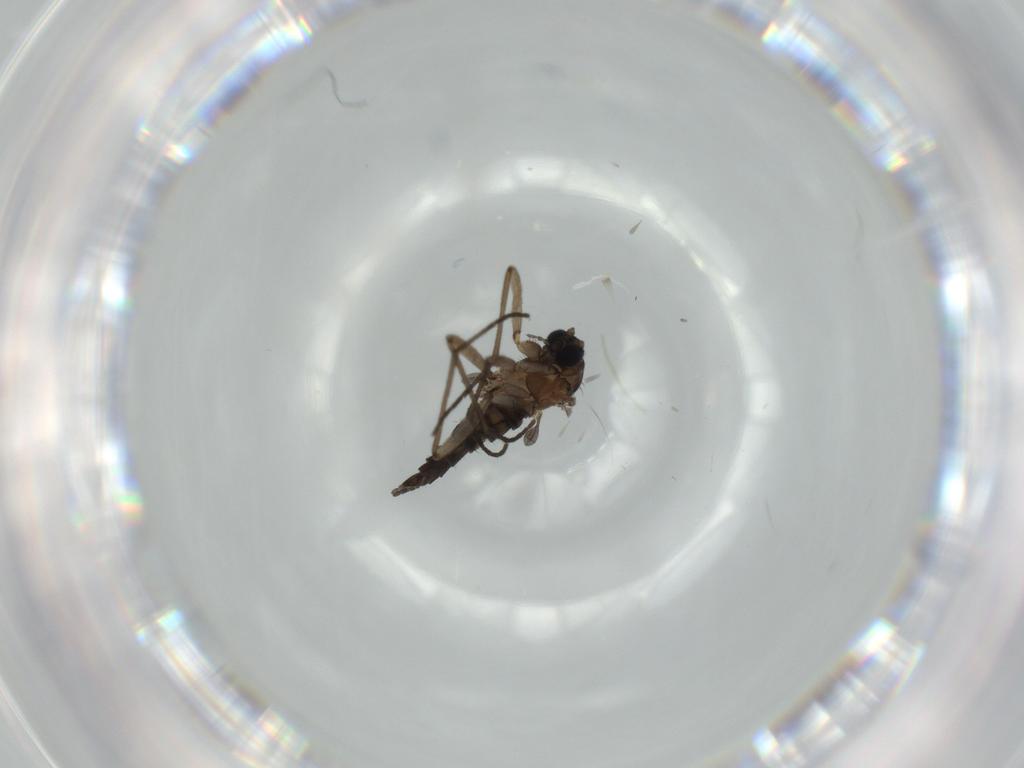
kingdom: Animalia
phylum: Arthropoda
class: Insecta
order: Diptera
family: Sciaridae
